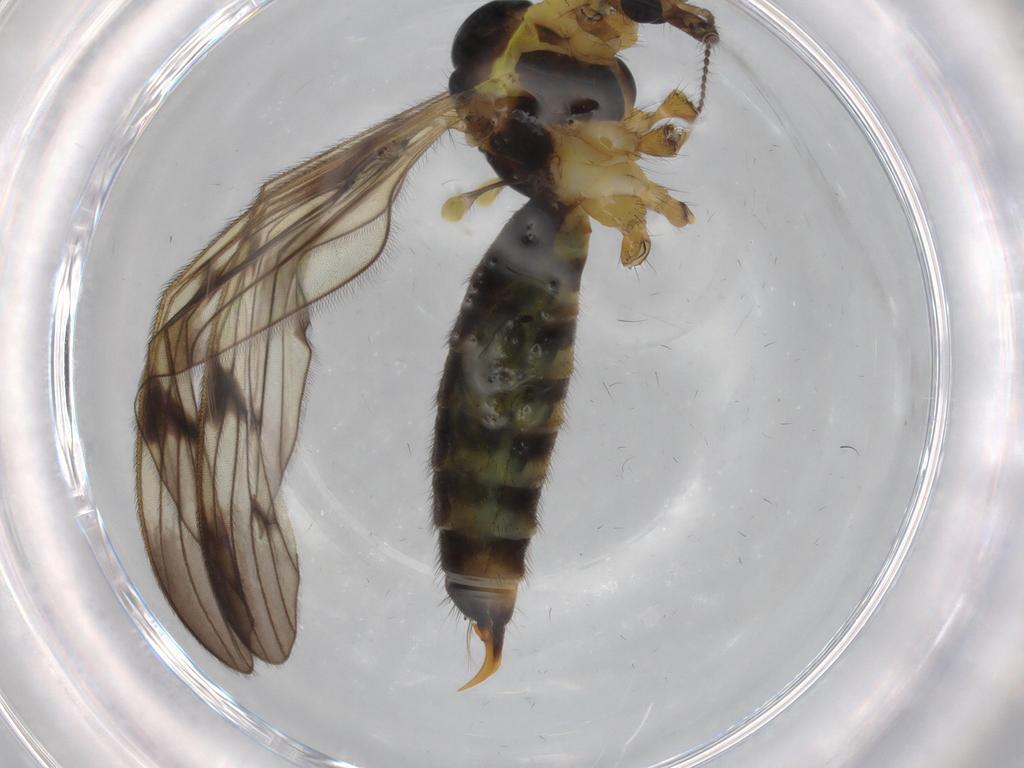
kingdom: Animalia
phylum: Arthropoda
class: Insecta
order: Diptera
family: Limoniidae
